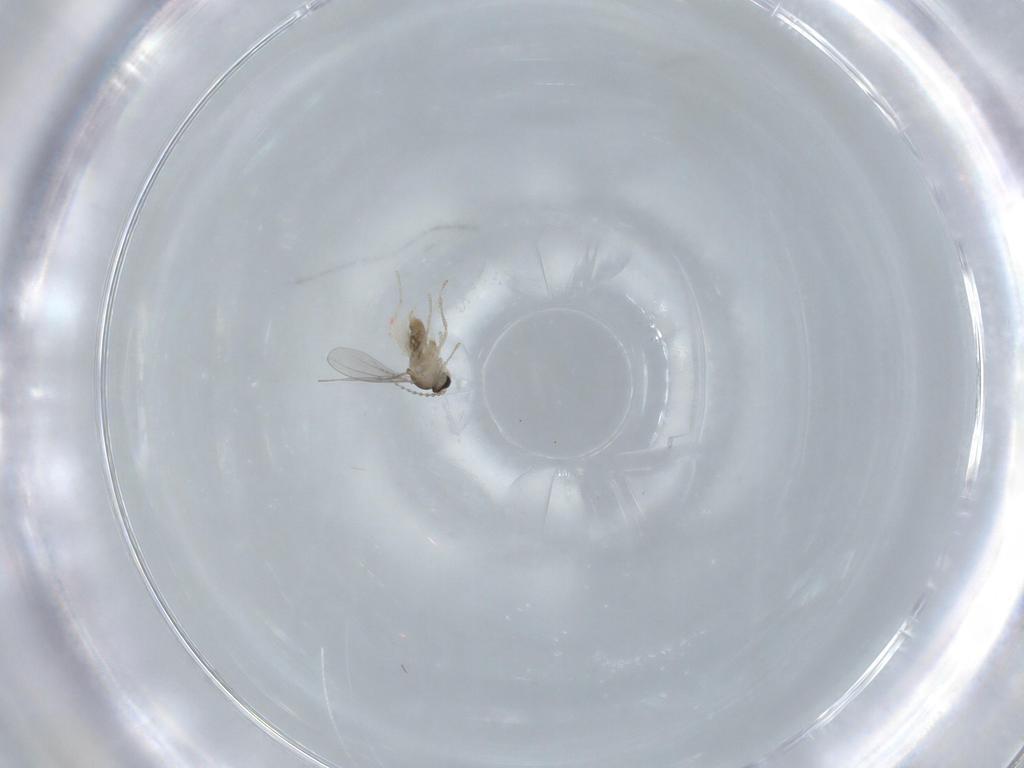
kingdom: Animalia
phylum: Arthropoda
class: Insecta
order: Diptera
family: Cecidomyiidae
